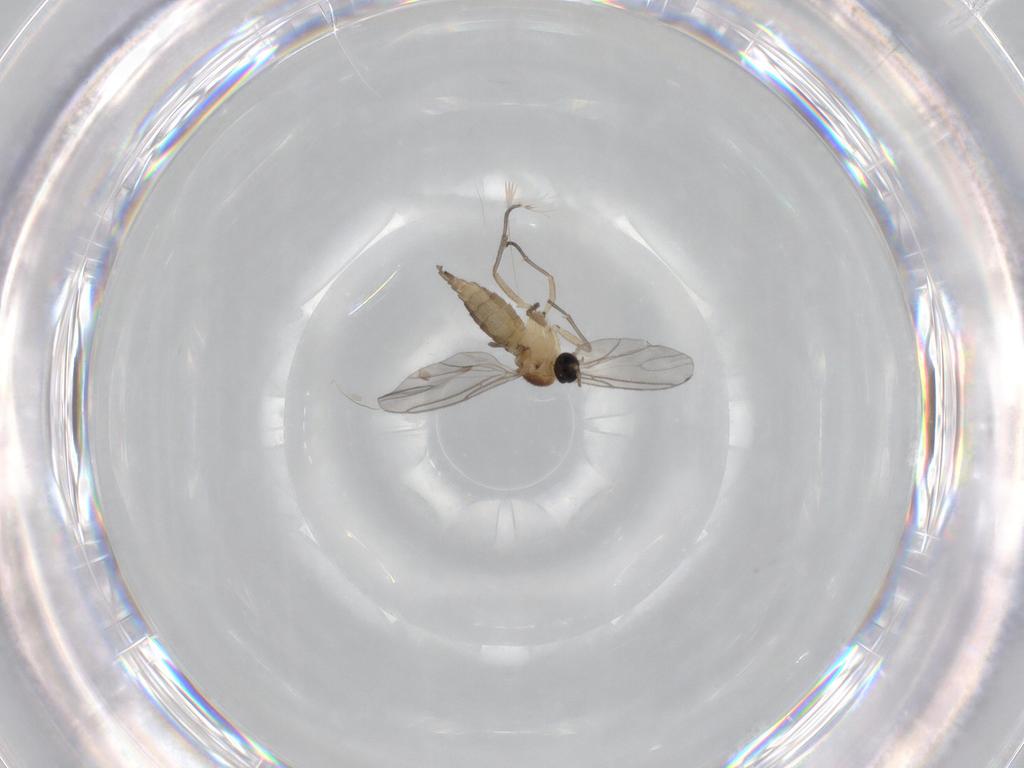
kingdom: Animalia
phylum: Arthropoda
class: Insecta
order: Diptera
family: Sciaridae
